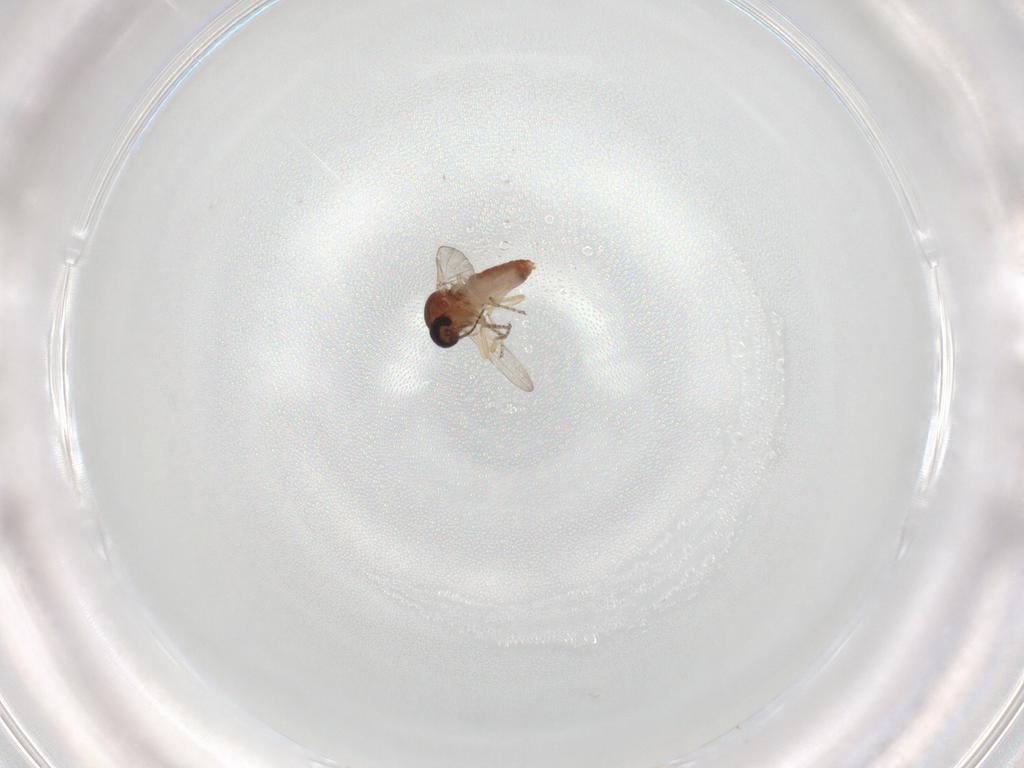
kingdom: Animalia
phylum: Arthropoda
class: Insecta
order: Diptera
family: Ceratopogonidae
